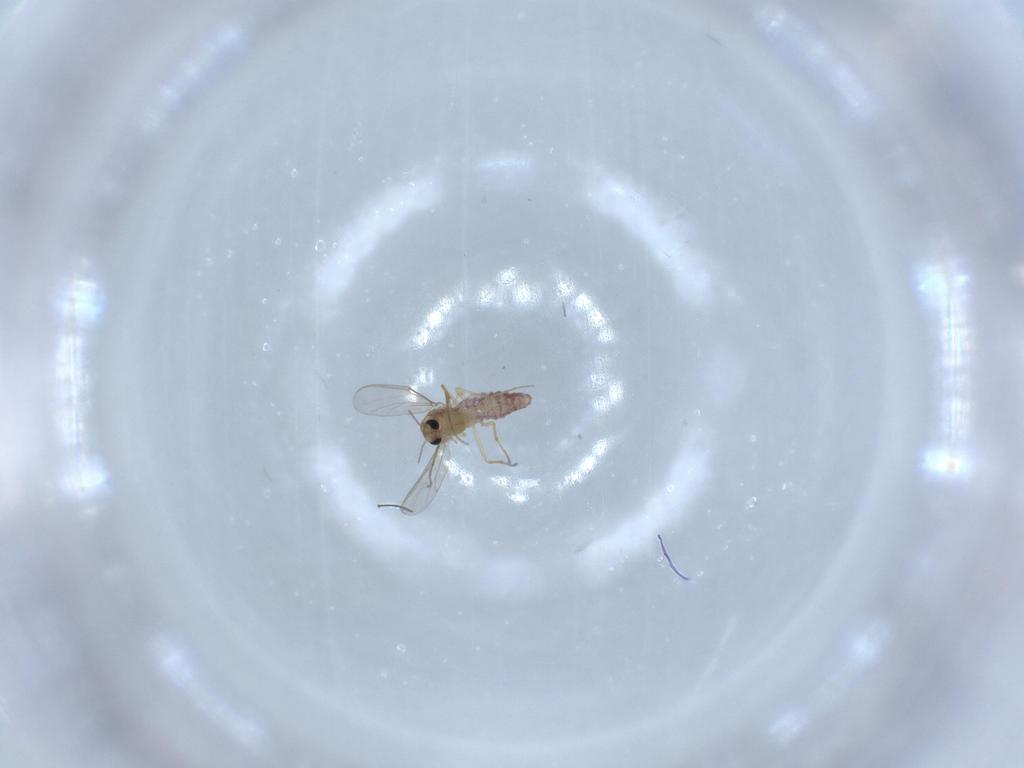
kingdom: Animalia
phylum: Arthropoda
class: Insecta
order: Diptera
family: Chironomidae
